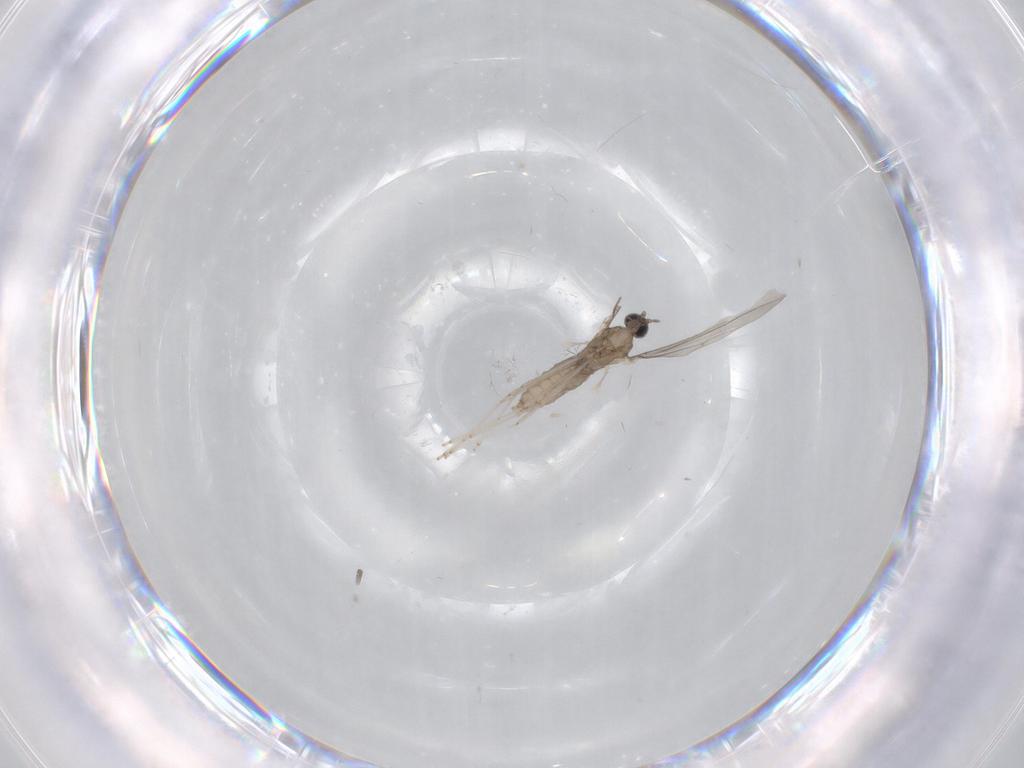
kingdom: Animalia
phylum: Arthropoda
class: Insecta
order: Diptera
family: Cecidomyiidae
